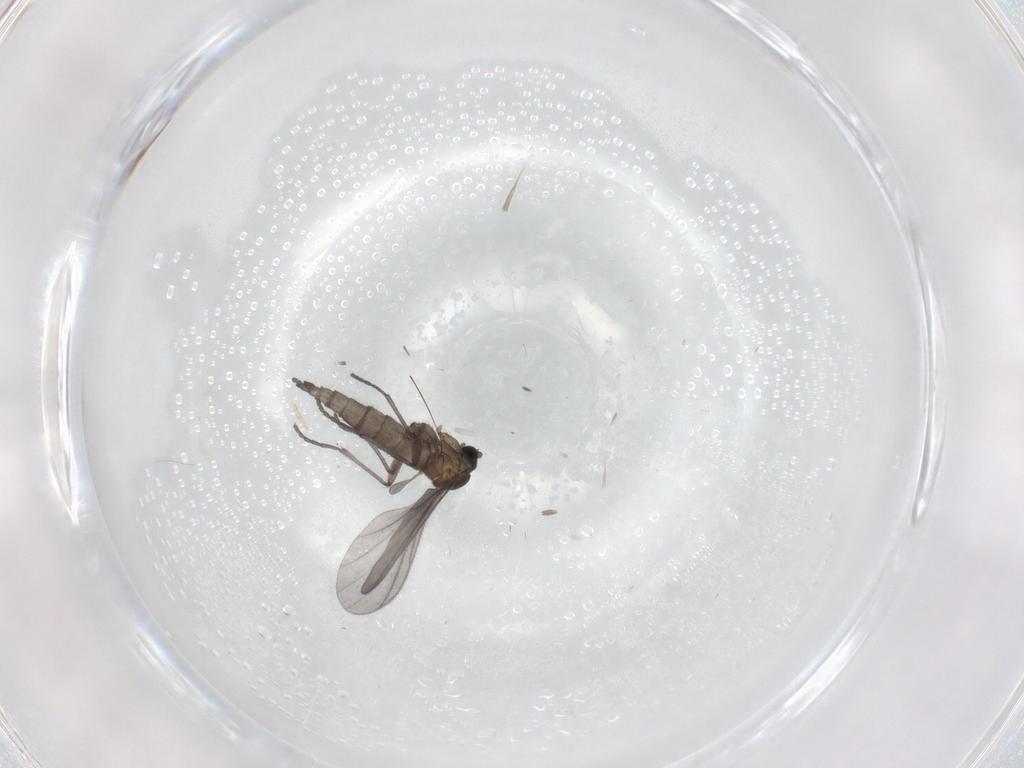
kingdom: Animalia
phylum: Arthropoda
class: Insecta
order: Diptera
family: Sciaridae
